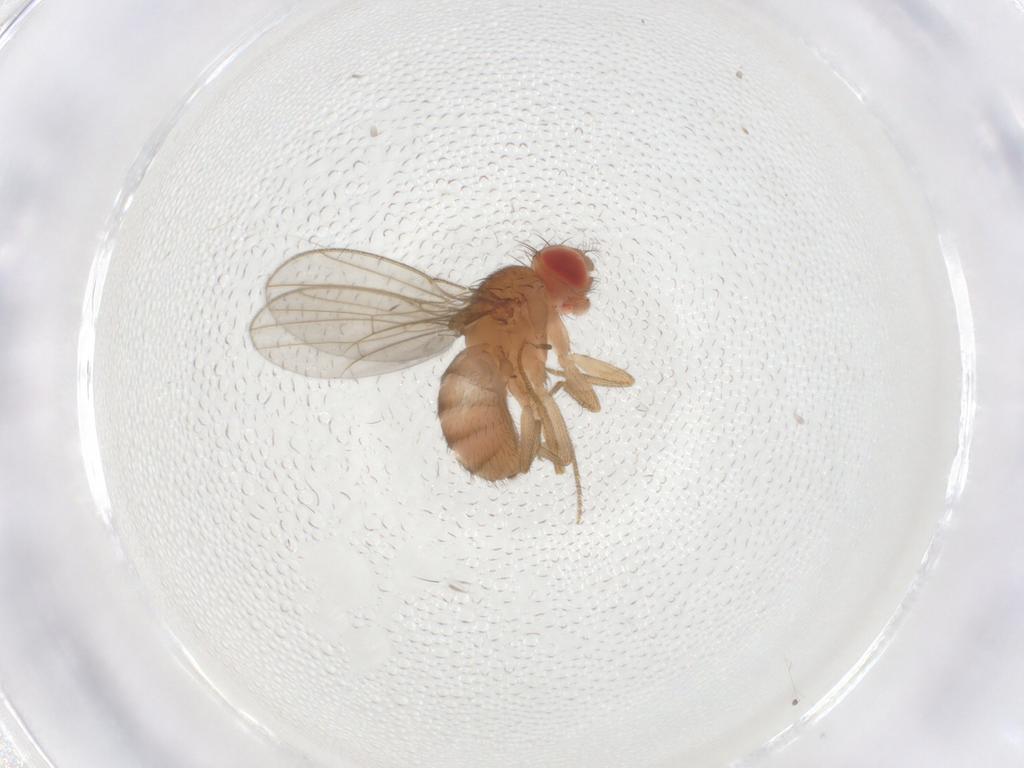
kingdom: Animalia
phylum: Arthropoda
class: Insecta
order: Diptera
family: Drosophilidae
